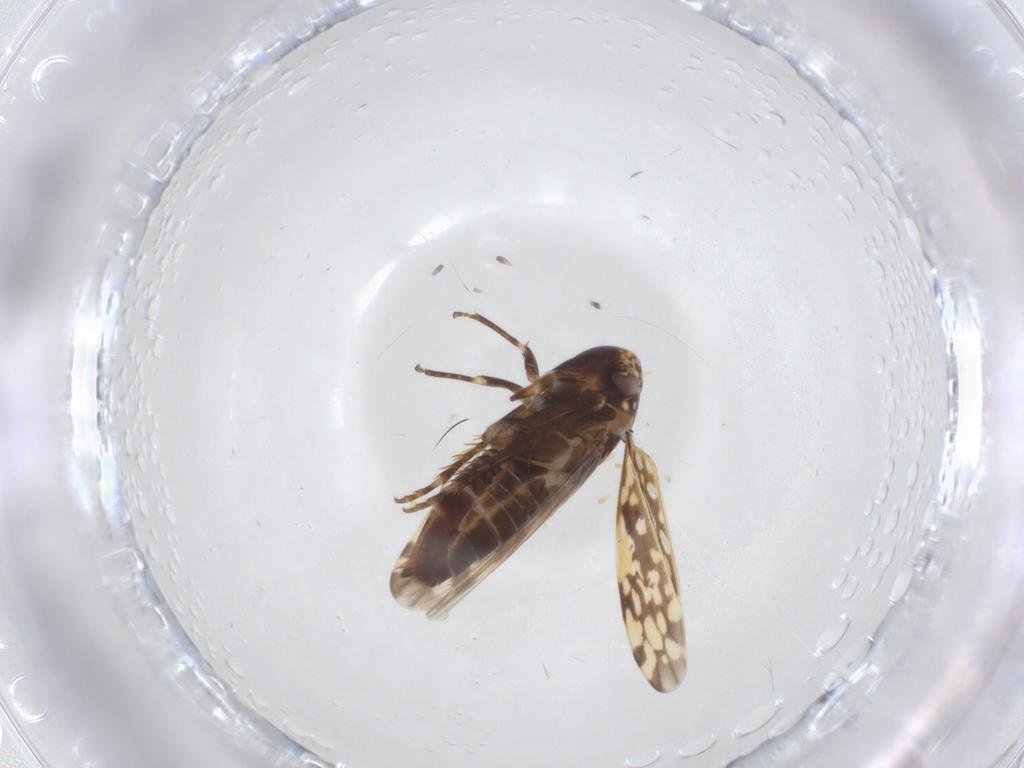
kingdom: Animalia
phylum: Arthropoda
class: Insecta
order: Hemiptera
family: Cicadellidae
